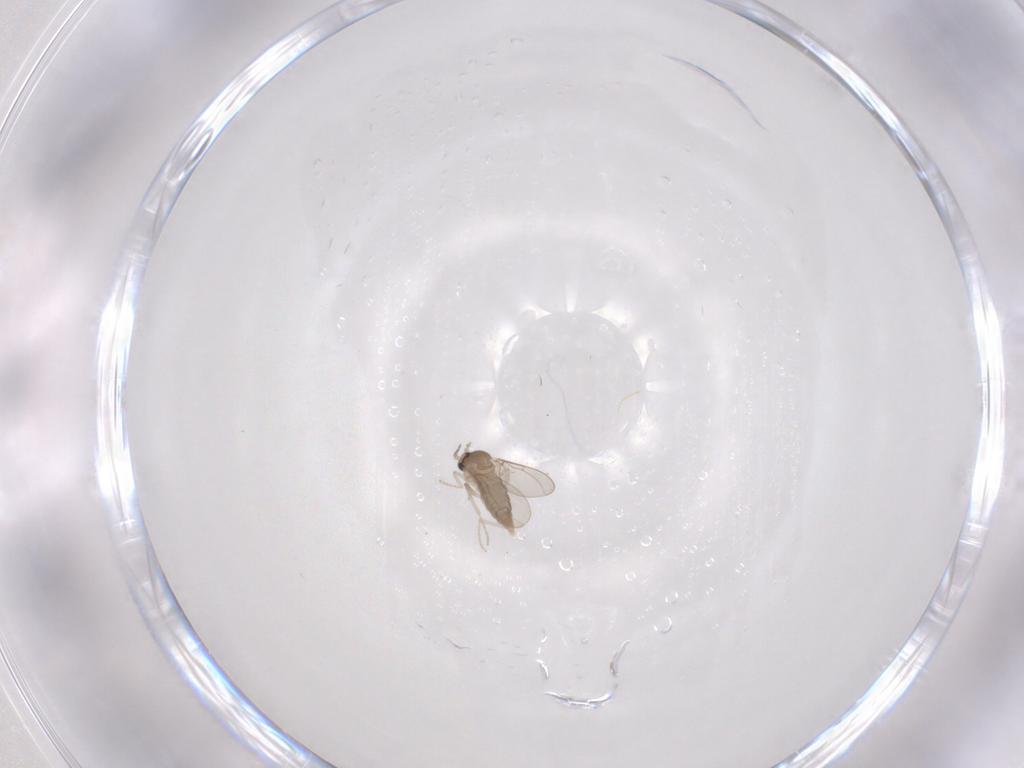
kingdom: Animalia
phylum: Arthropoda
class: Insecta
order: Diptera
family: Cecidomyiidae
